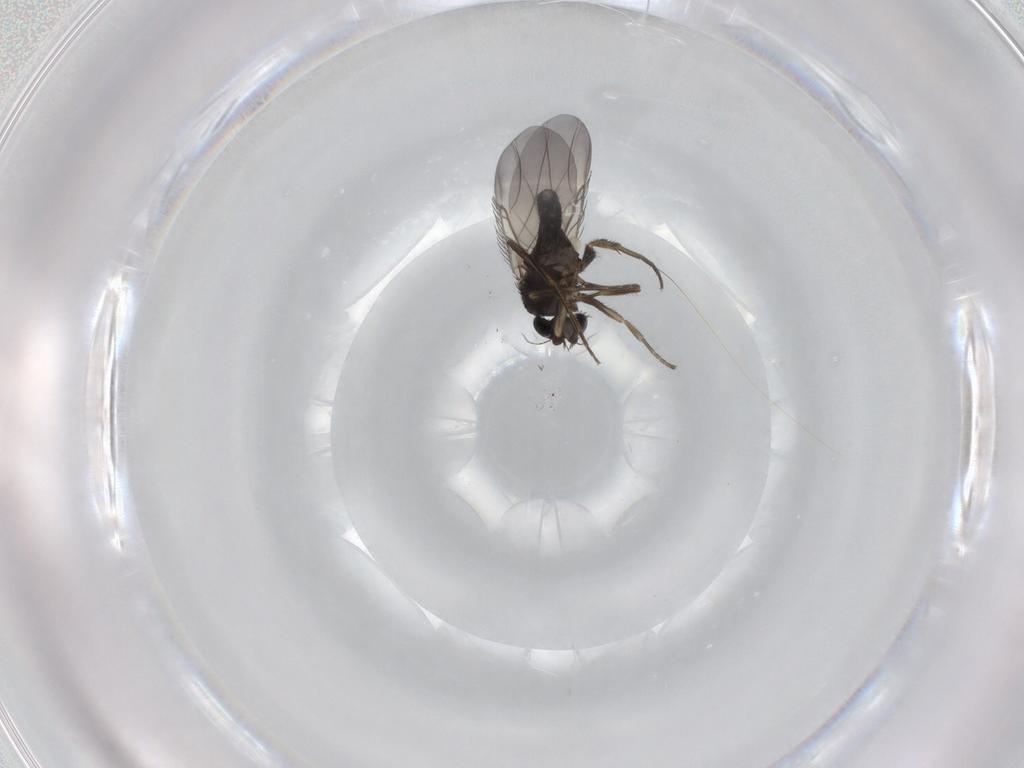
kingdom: Animalia
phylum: Arthropoda
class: Insecta
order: Diptera
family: Phoridae
